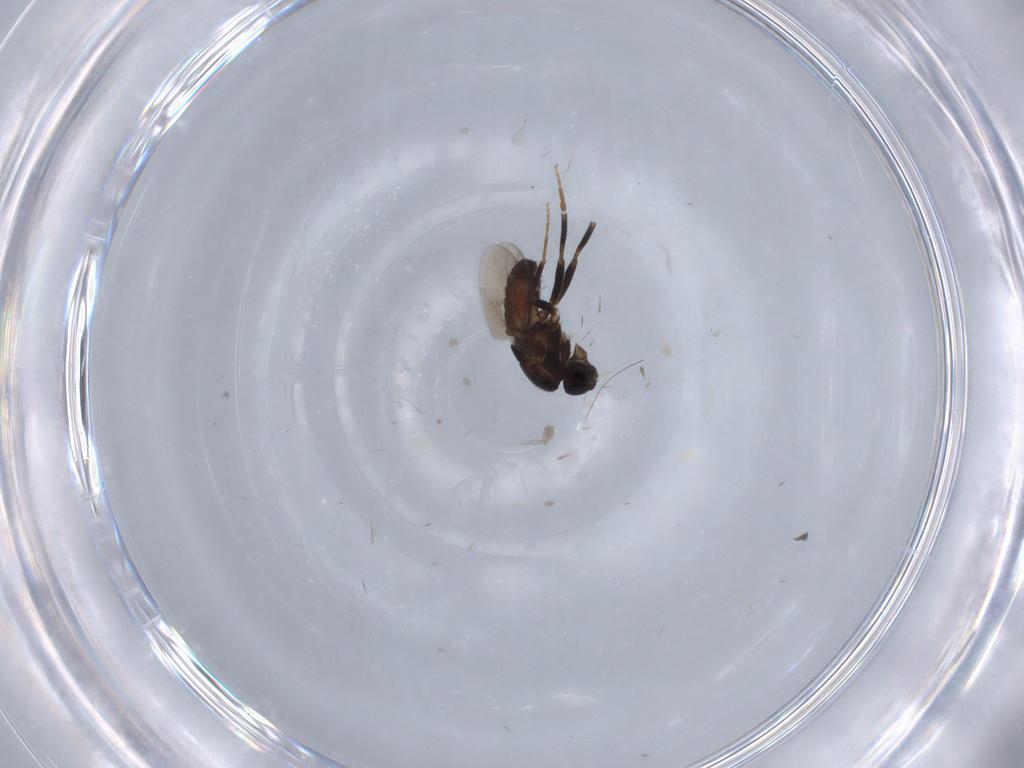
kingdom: Animalia
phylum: Arthropoda
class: Insecta
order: Diptera
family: Sphaeroceridae
